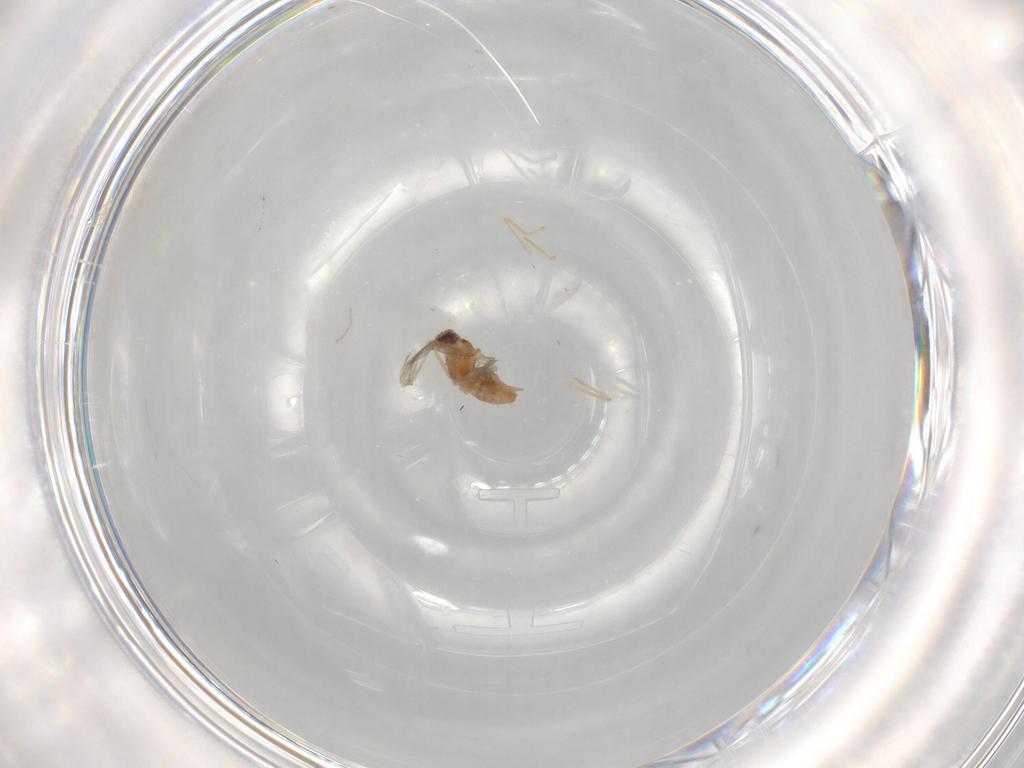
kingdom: Animalia
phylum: Arthropoda
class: Insecta
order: Diptera
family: Cecidomyiidae
